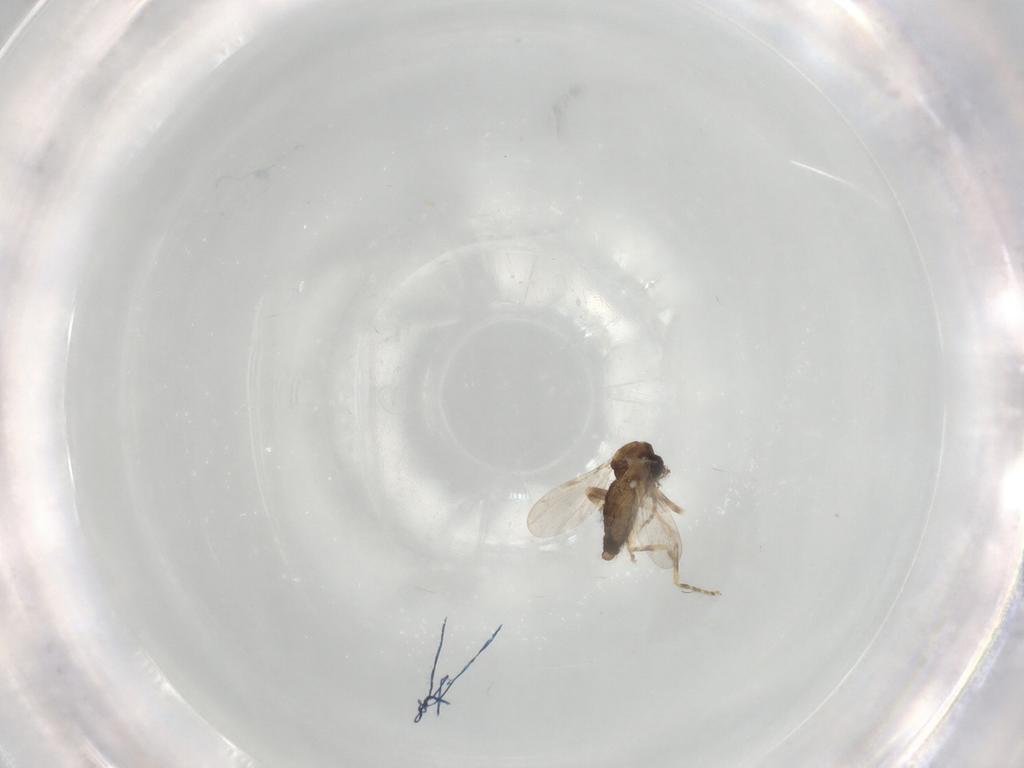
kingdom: Animalia
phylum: Arthropoda
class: Insecta
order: Diptera
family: Ceratopogonidae
